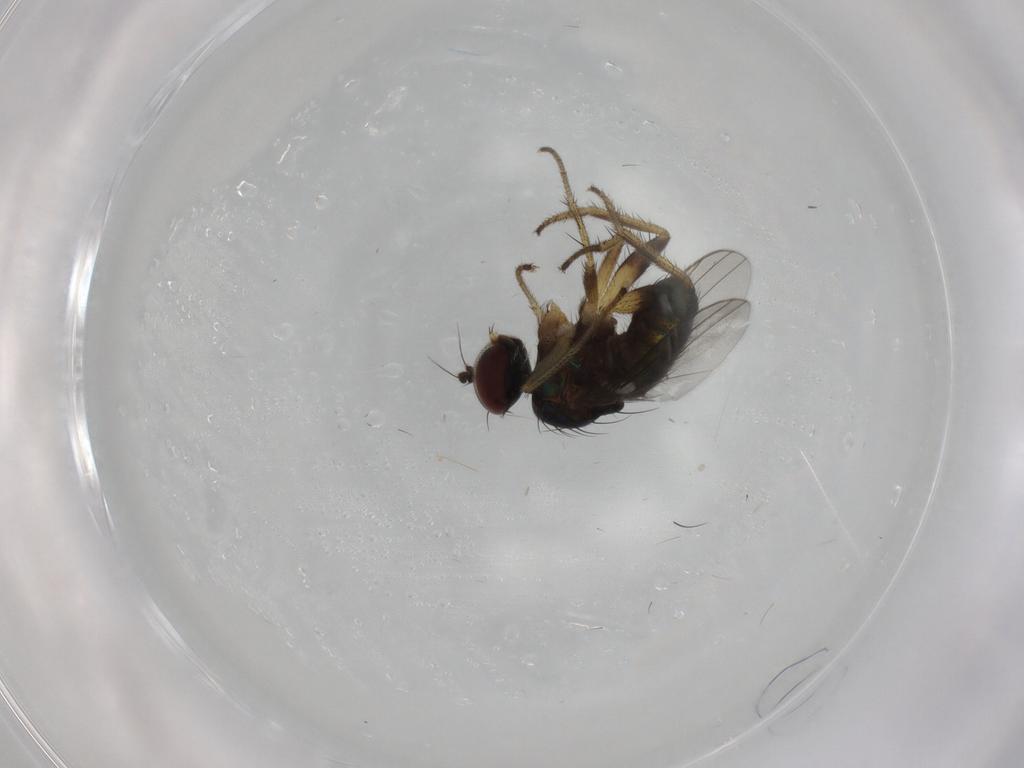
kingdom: Animalia
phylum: Arthropoda
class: Insecta
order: Diptera
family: Dolichopodidae
